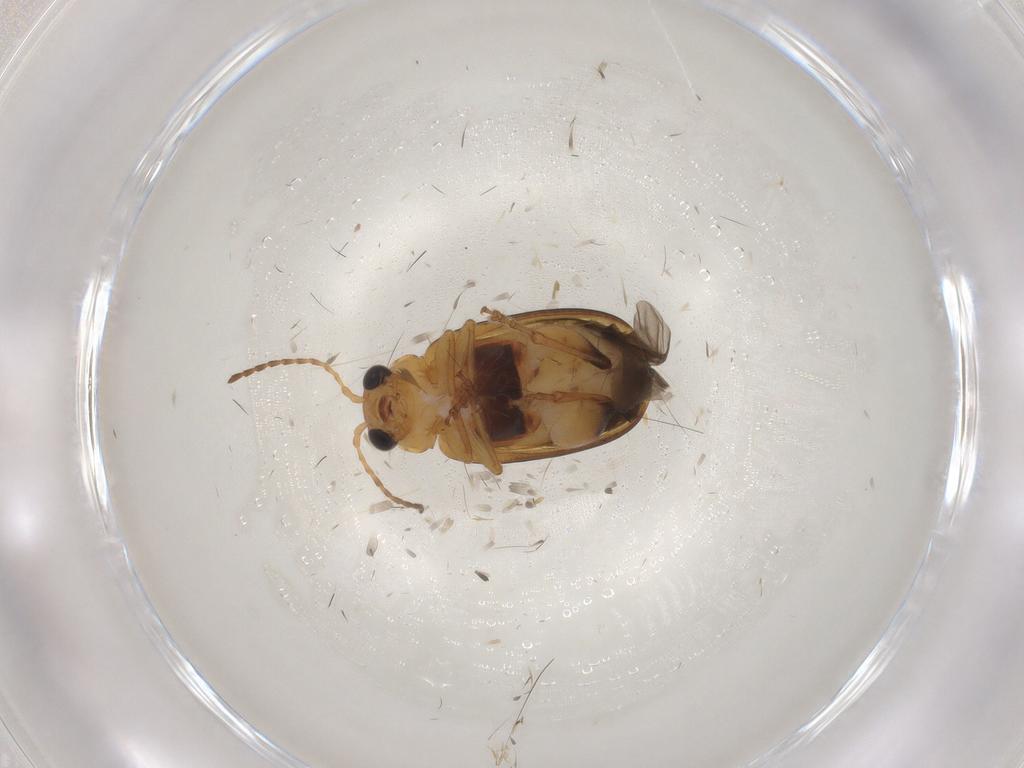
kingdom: Animalia
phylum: Arthropoda
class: Insecta
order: Coleoptera
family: Chrysomelidae
